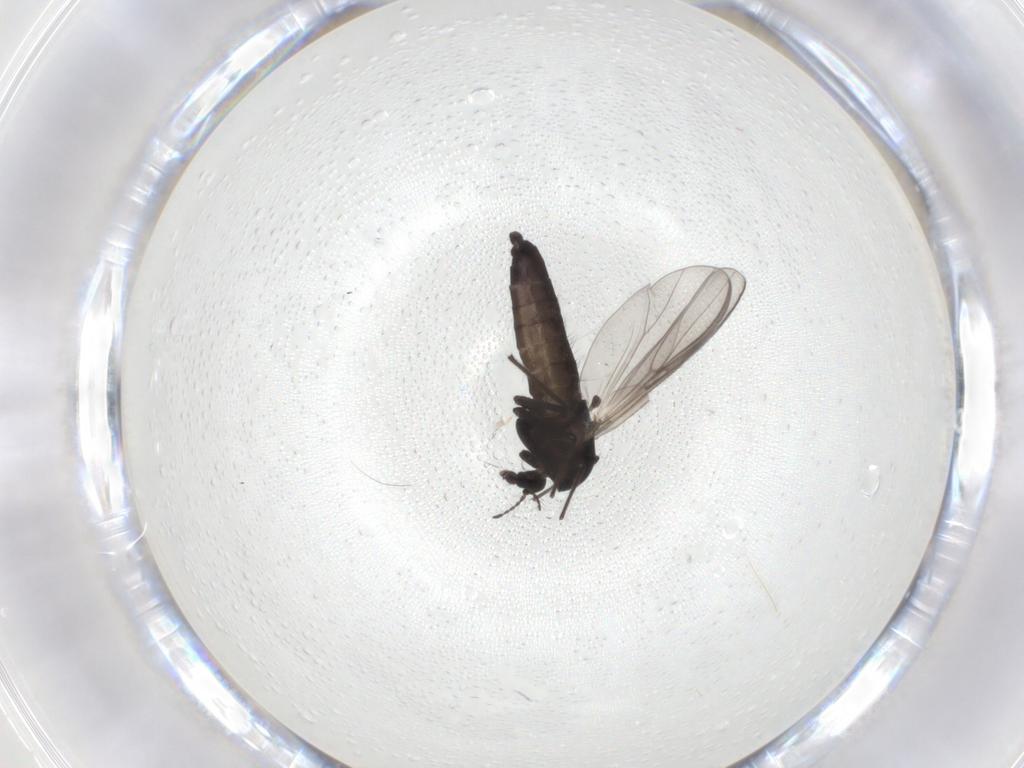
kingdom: Animalia
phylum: Arthropoda
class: Insecta
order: Diptera
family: Chironomidae
